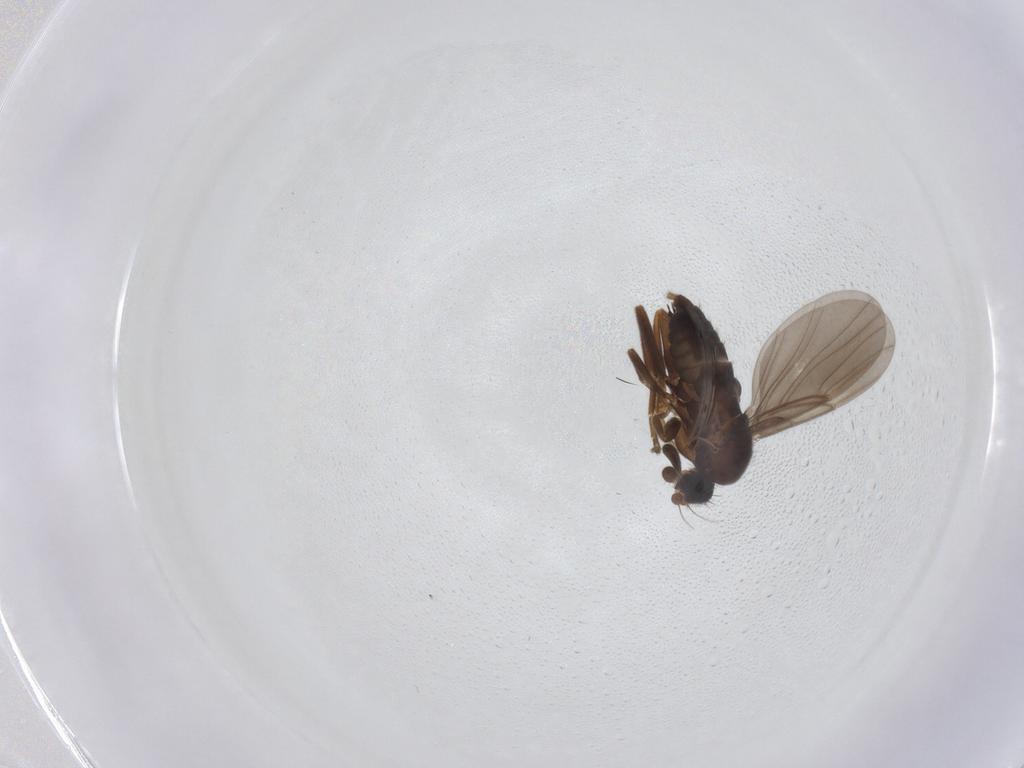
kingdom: Animalia
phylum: Arthropoda
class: Insecta
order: Diptera
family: Phoridae
